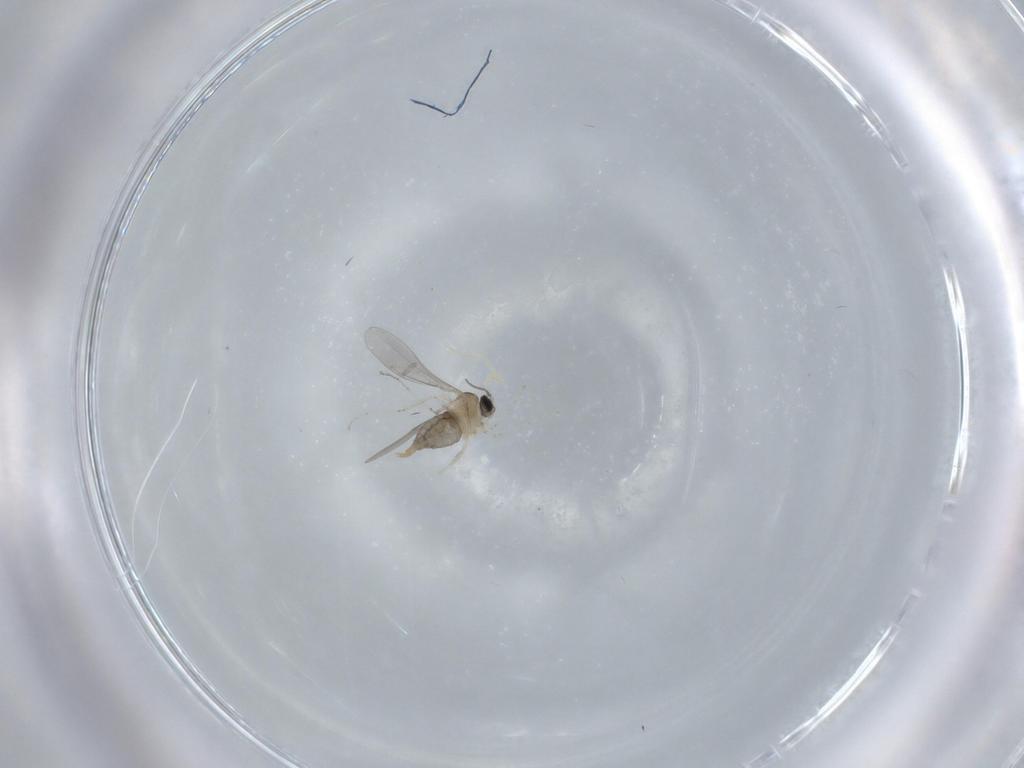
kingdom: Animalia
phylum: Arthropoda
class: Insecta
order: Diptera
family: Cecidomyiidae
